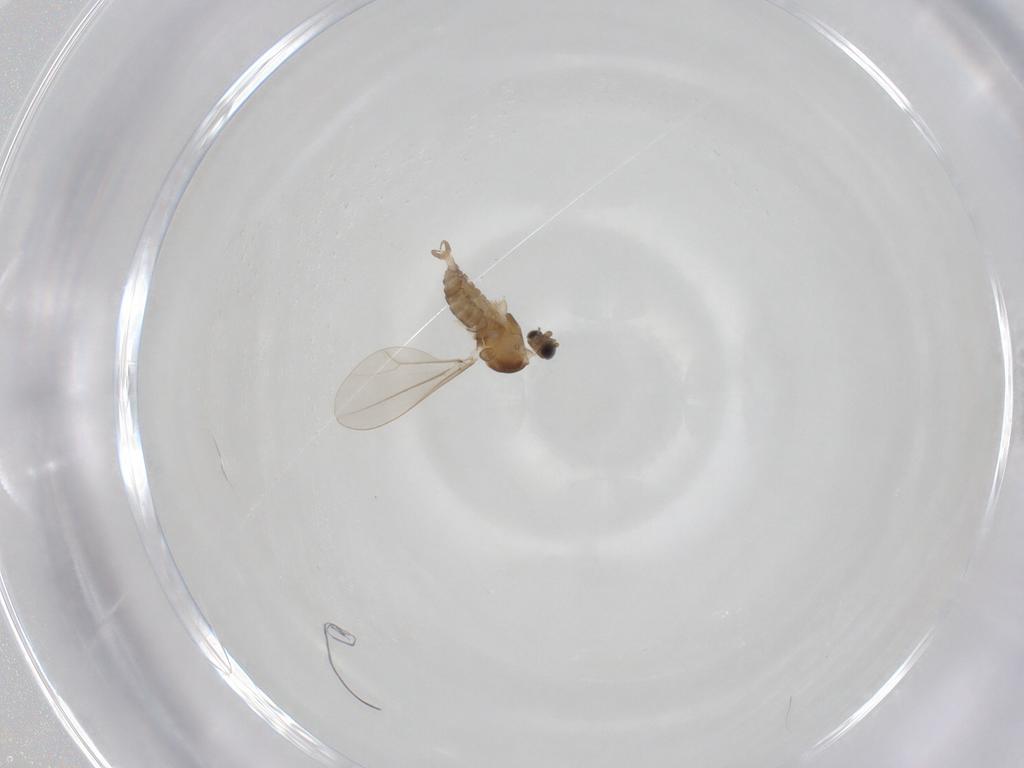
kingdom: Animalia
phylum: Arthropoda
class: Insecta
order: Diptera
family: Cecidomyiidae
